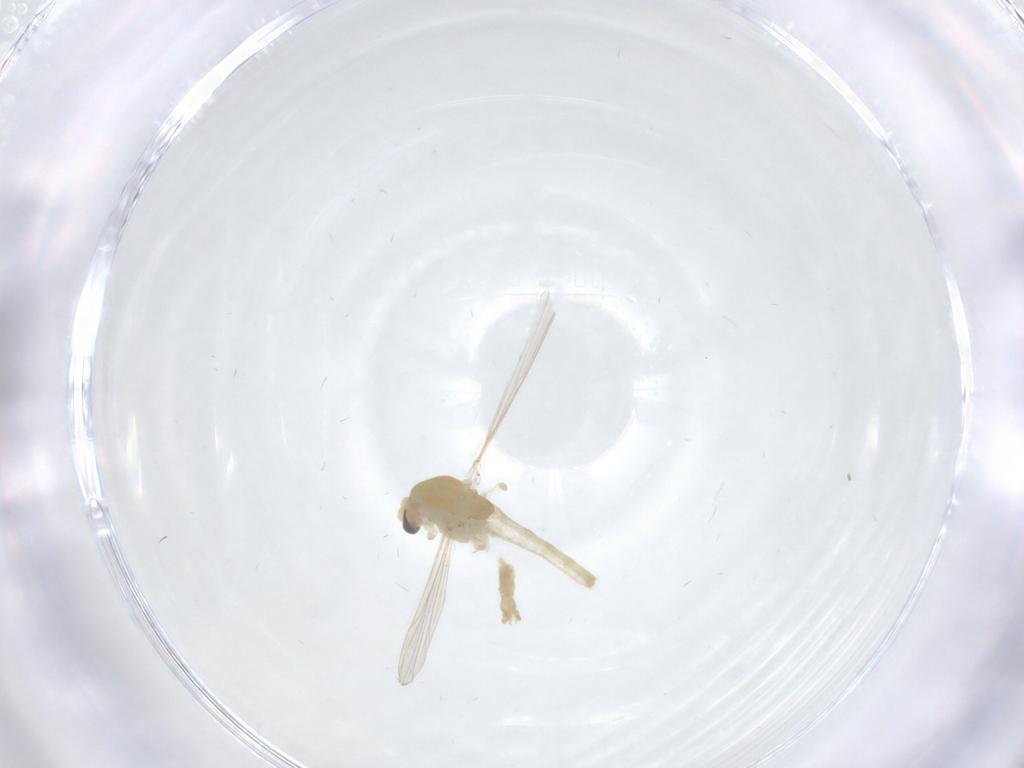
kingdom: Animalia
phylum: Arthropoda
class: Insecta
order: Diptera
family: Chironomidae
